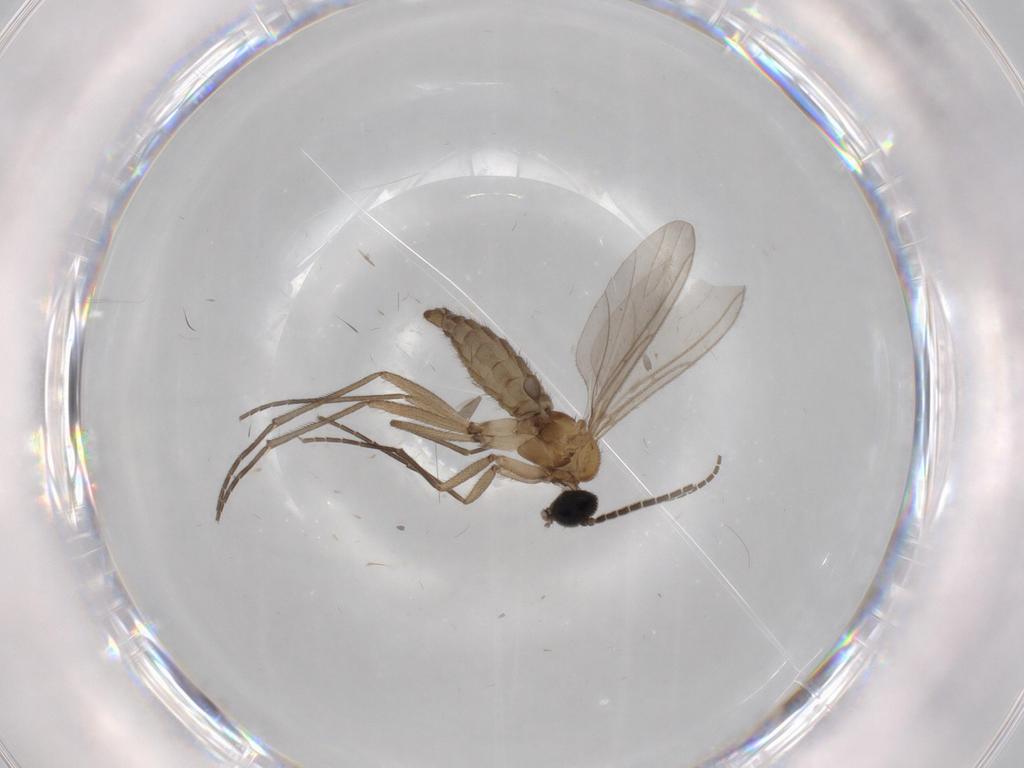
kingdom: Animalia
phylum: Arthropoda
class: Insecta
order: Diptera
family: Sciaridae
